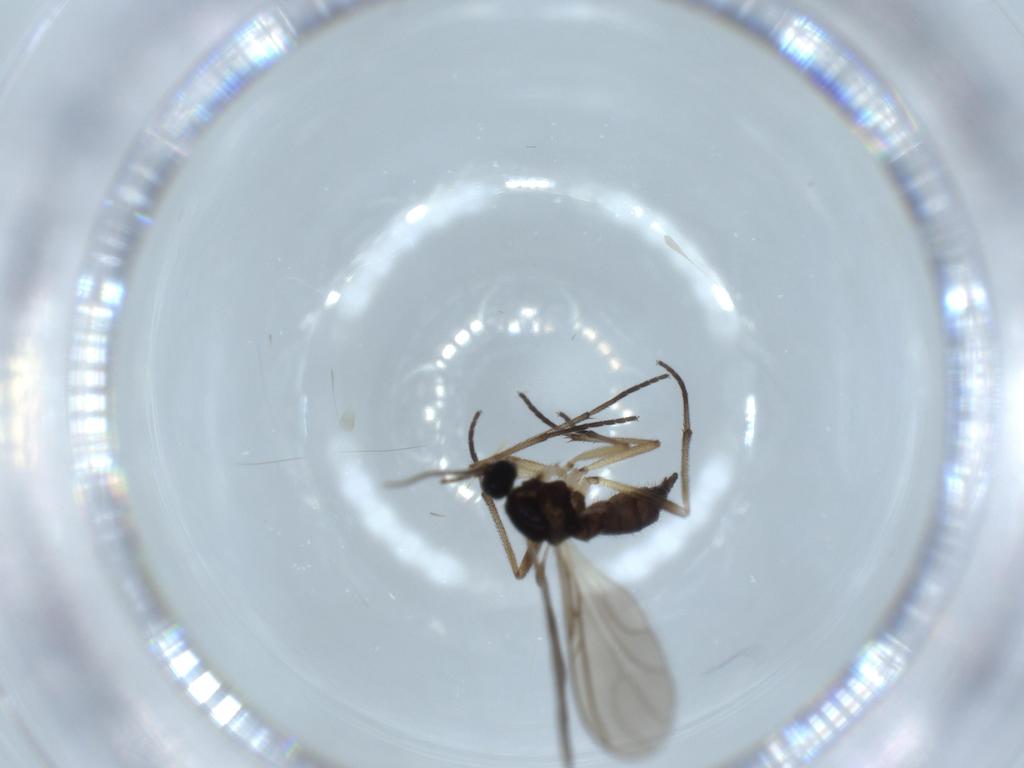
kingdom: Animalia
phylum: Arthropoda
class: Insecta
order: Diptera
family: Sciaridae
